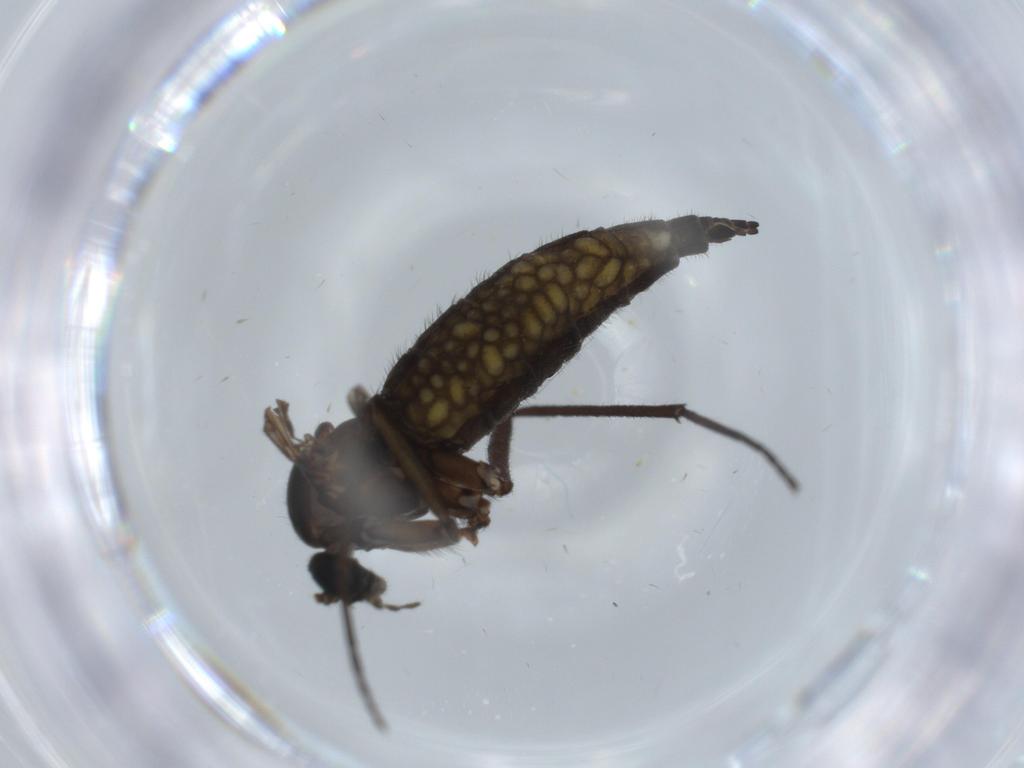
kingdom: Animalia
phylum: Arthropoda
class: Insecta
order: Diptera
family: Sciaridae
